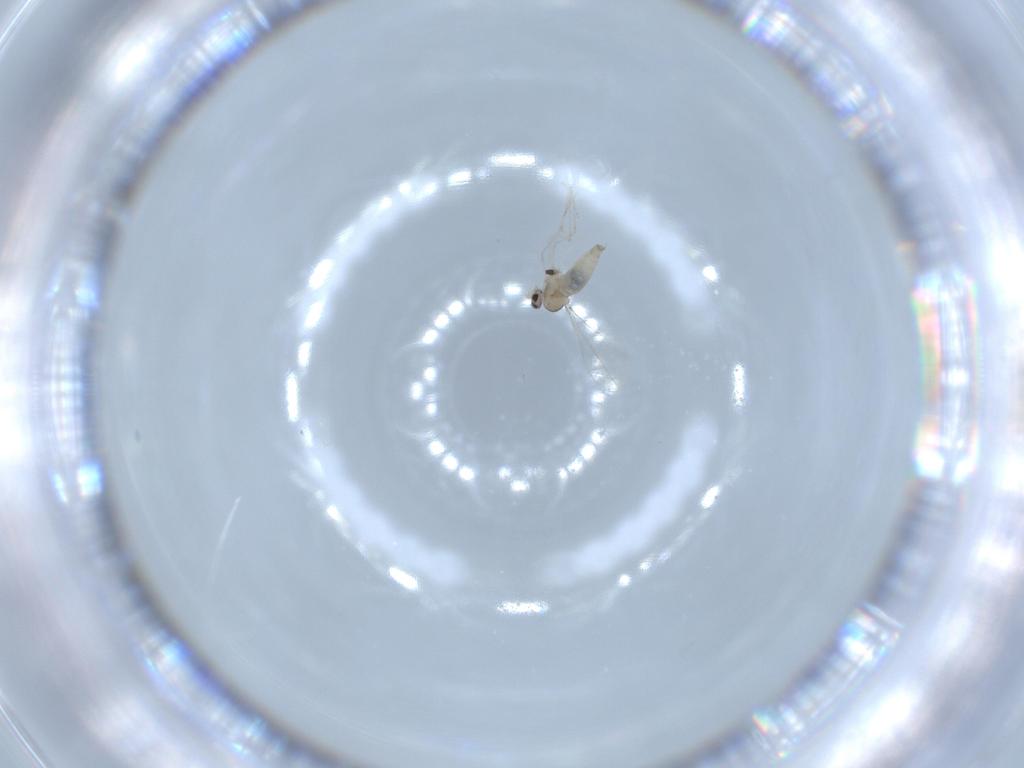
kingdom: Animalia
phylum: Arthropoda
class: Insecta
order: Diptera
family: Cecidomyiidae
